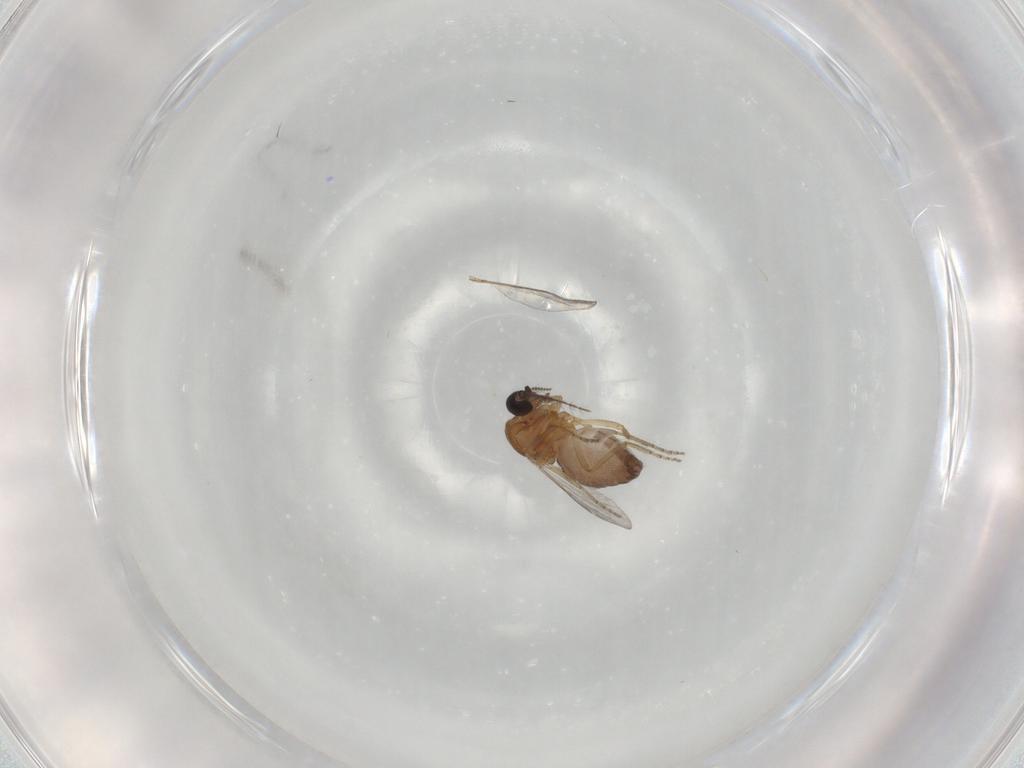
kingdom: Animalia
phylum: Arthropoda
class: Insecta
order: Diptera
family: Ceratopogonidae
